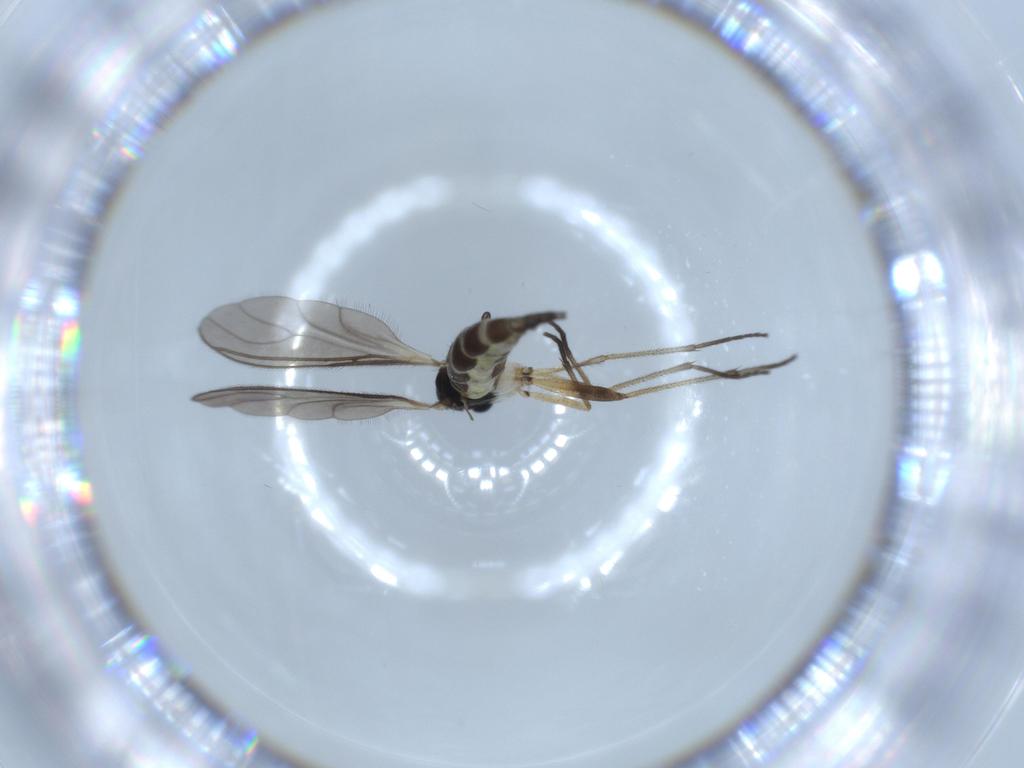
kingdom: Animalia
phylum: Arthropoda
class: Insecta
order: Diptera
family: Sciaridae
